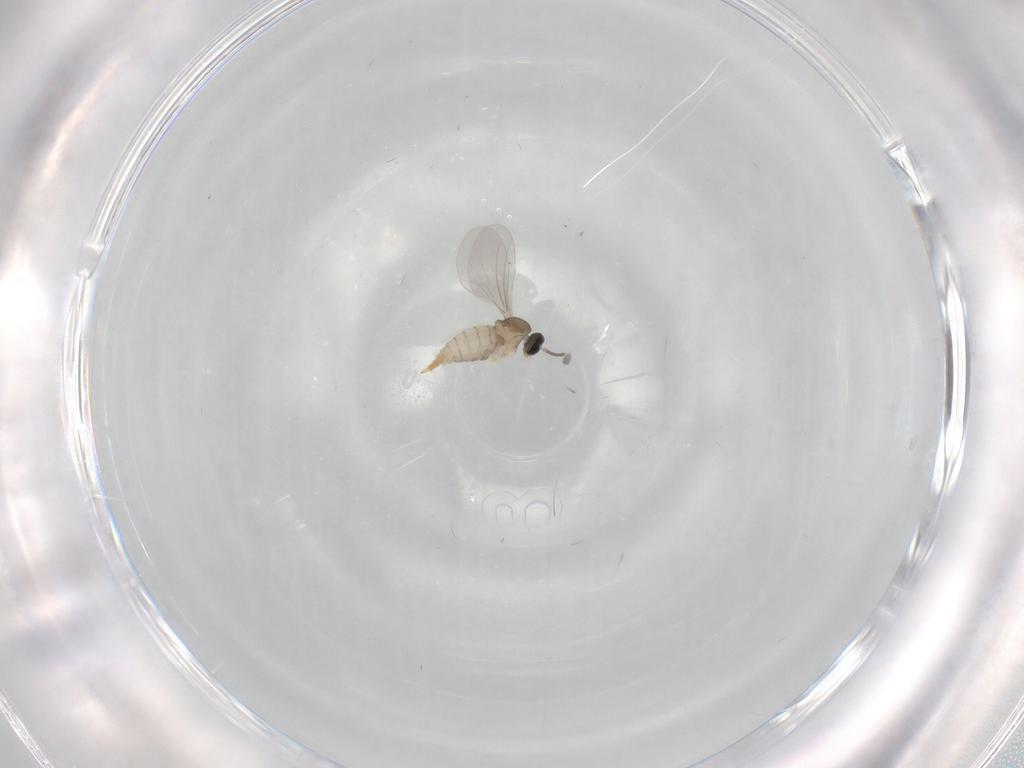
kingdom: Animalia
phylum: Arthropoda
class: Insecta
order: Diptera
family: Cecidomyiidae
